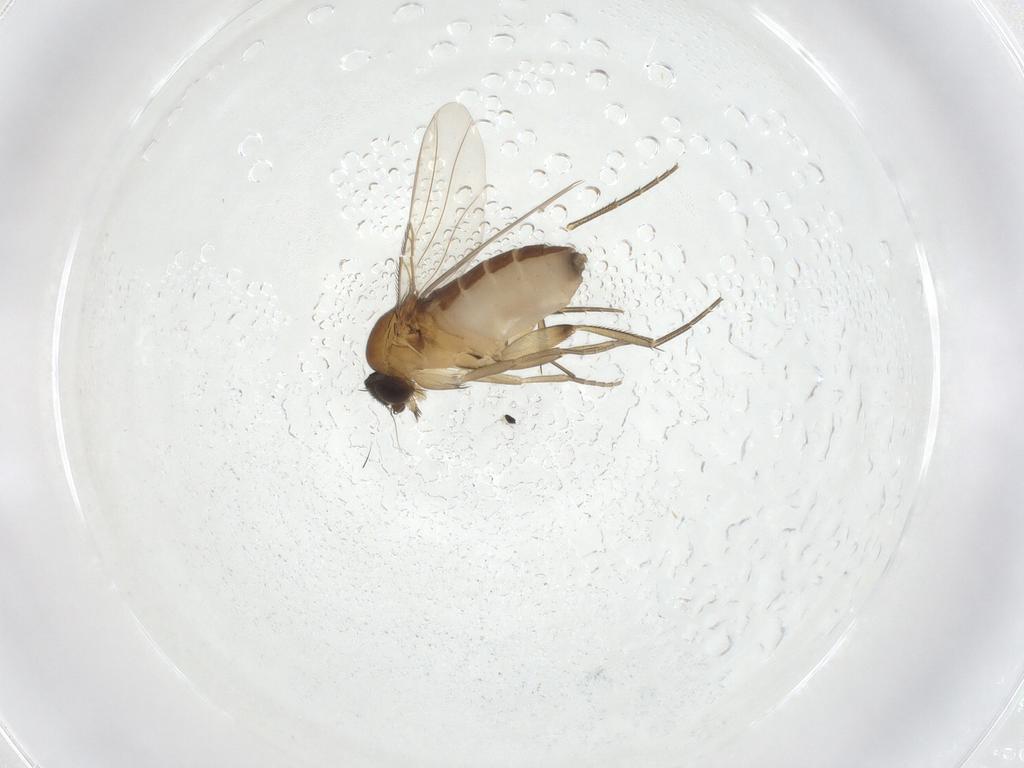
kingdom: Animalia
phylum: Arthropoda
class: Insecta
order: Diptera
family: Phoridae
